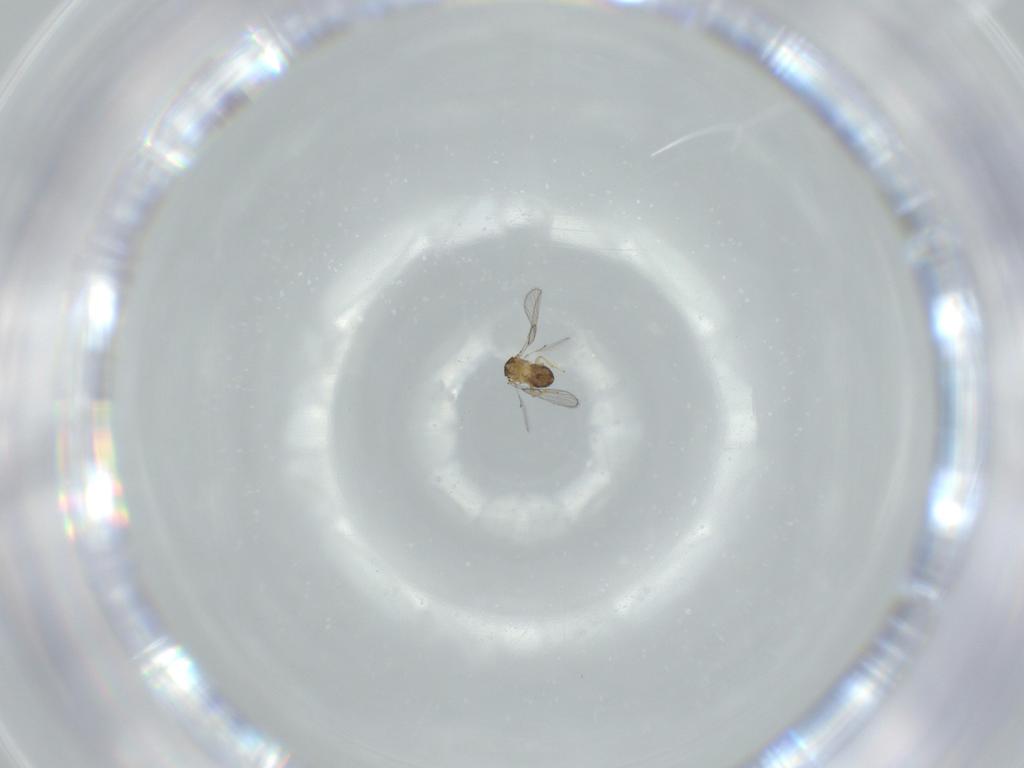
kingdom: Animalia
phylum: Arthropoda
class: Insecta
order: Hymenoptera
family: Trichogrammatidae
